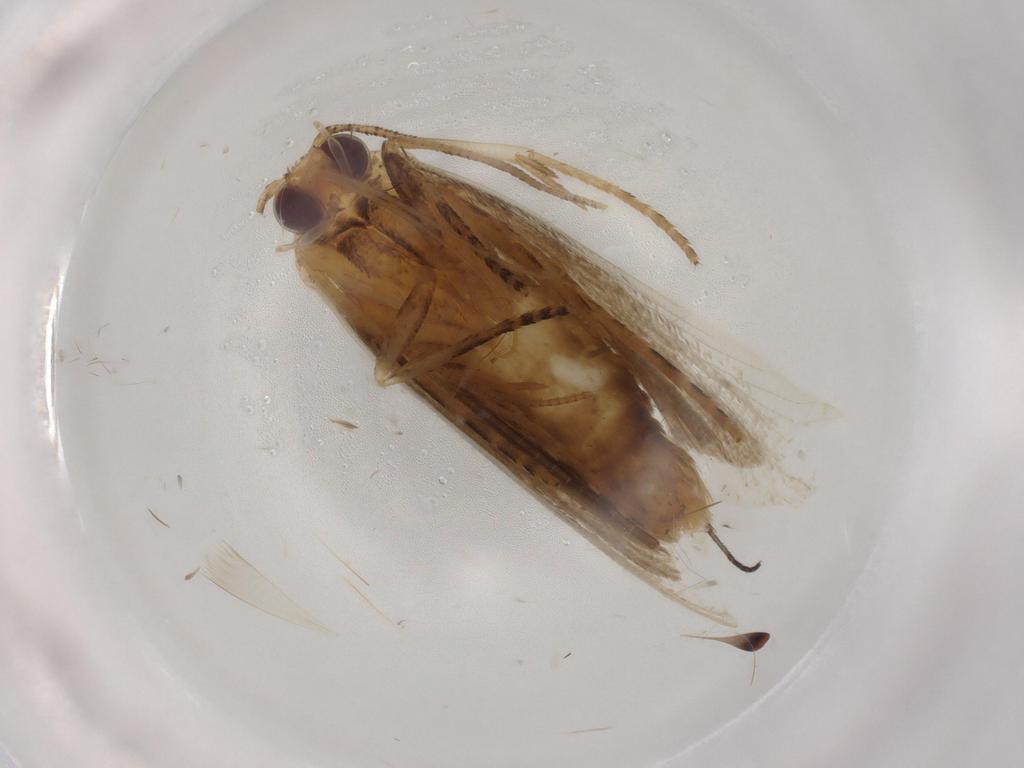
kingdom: Animalia
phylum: Arthropoda
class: Insecta
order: Lepidoptera
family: Erebidae
